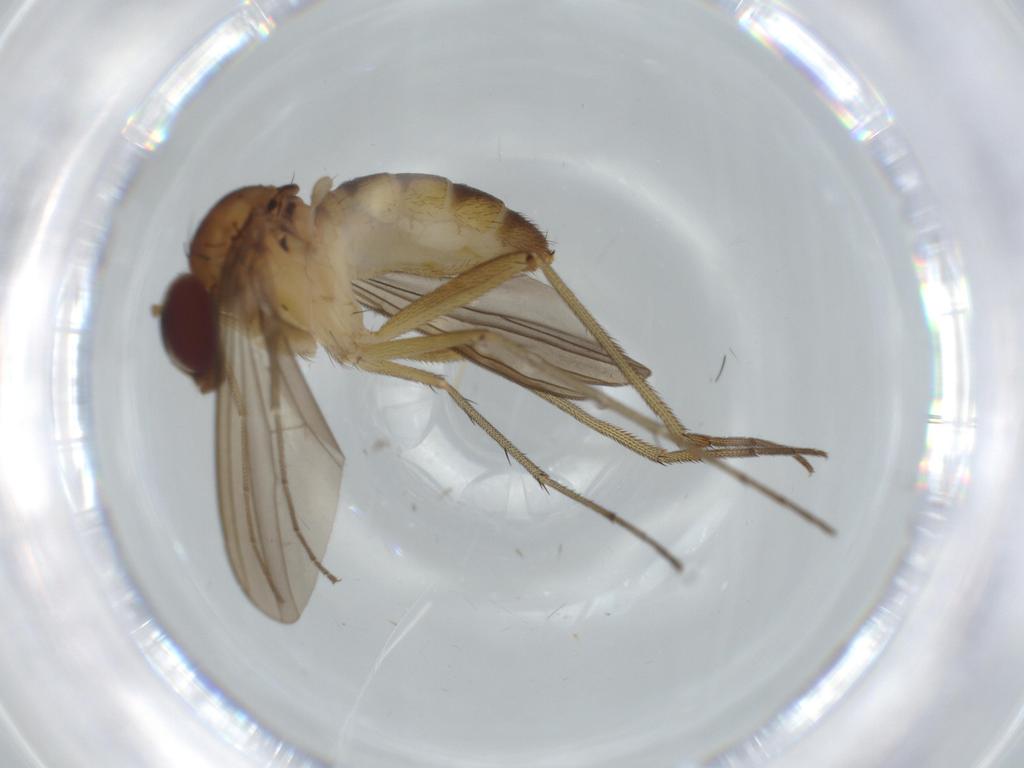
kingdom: Animalia
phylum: Arthropoda
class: Insecta
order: Diptera
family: Dolichopodidae
